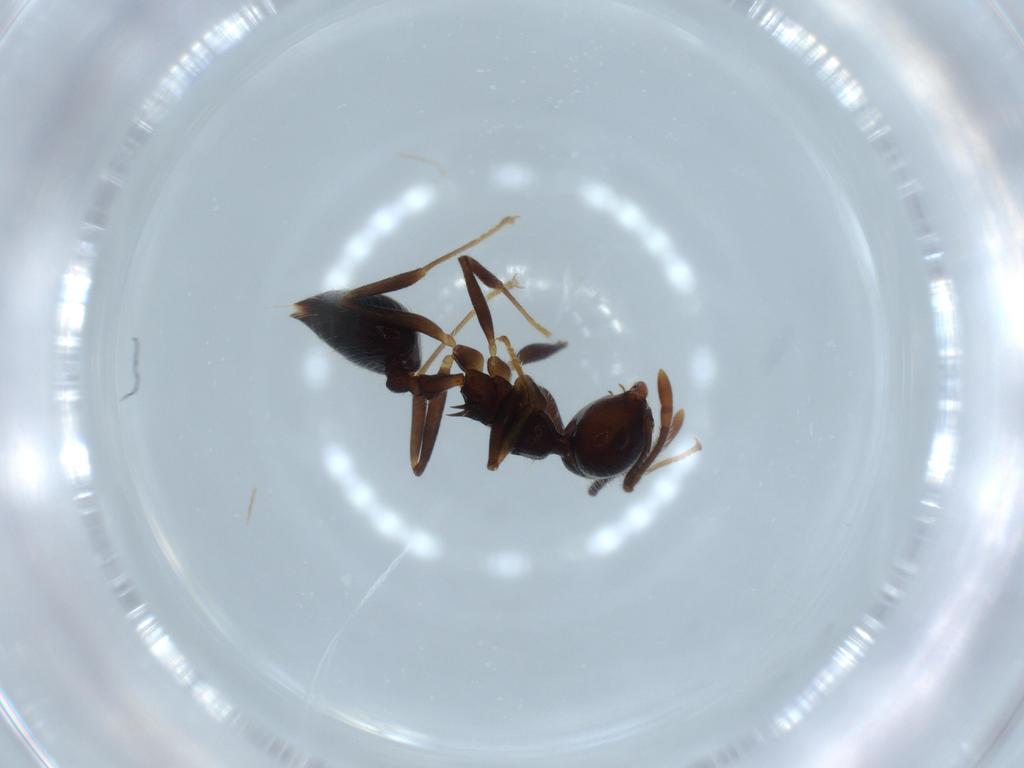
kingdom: Animalia
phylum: Arthropoda
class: Insecta
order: Hymenoptera
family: Formicidae
